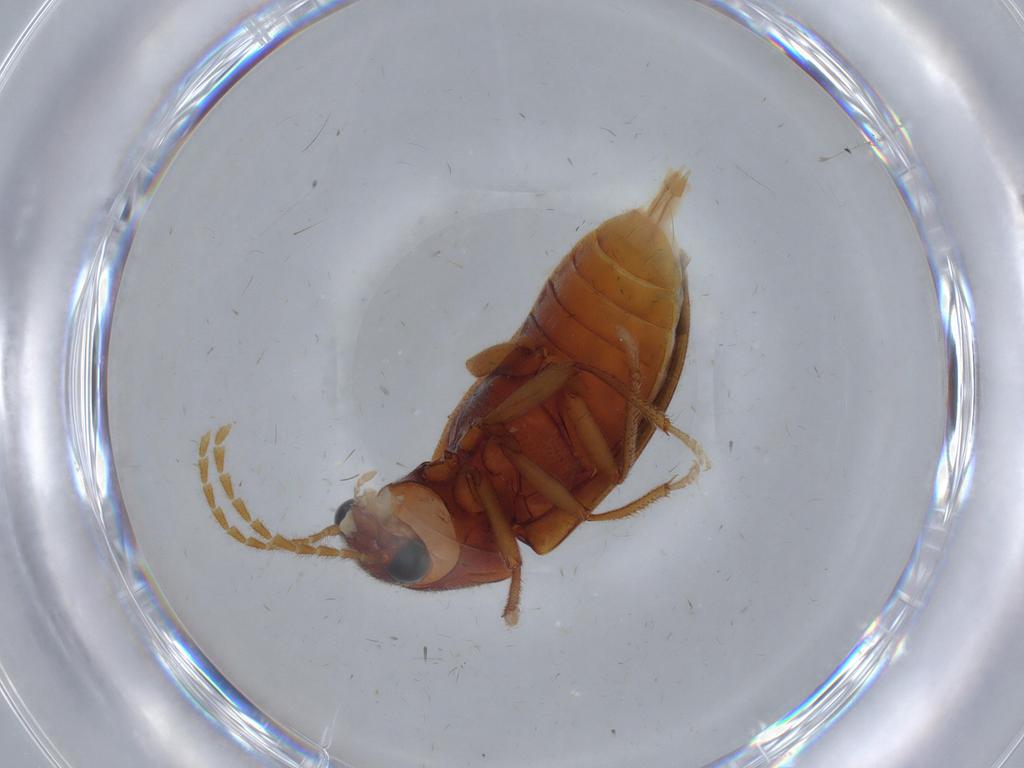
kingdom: Animalia
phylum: Arthropoda
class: Insecta
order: Coleoptera
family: Ptilodactylidae
